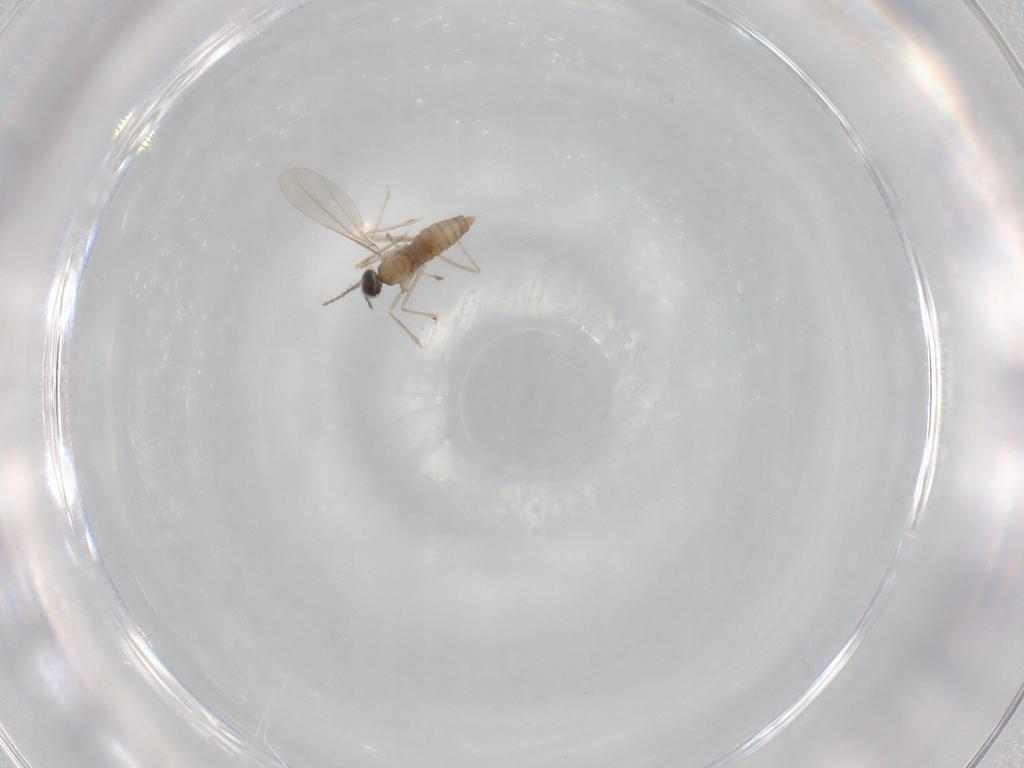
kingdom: Animalia
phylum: Arthropoda
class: Insecta
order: Diptera
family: Cecidomyiidae
